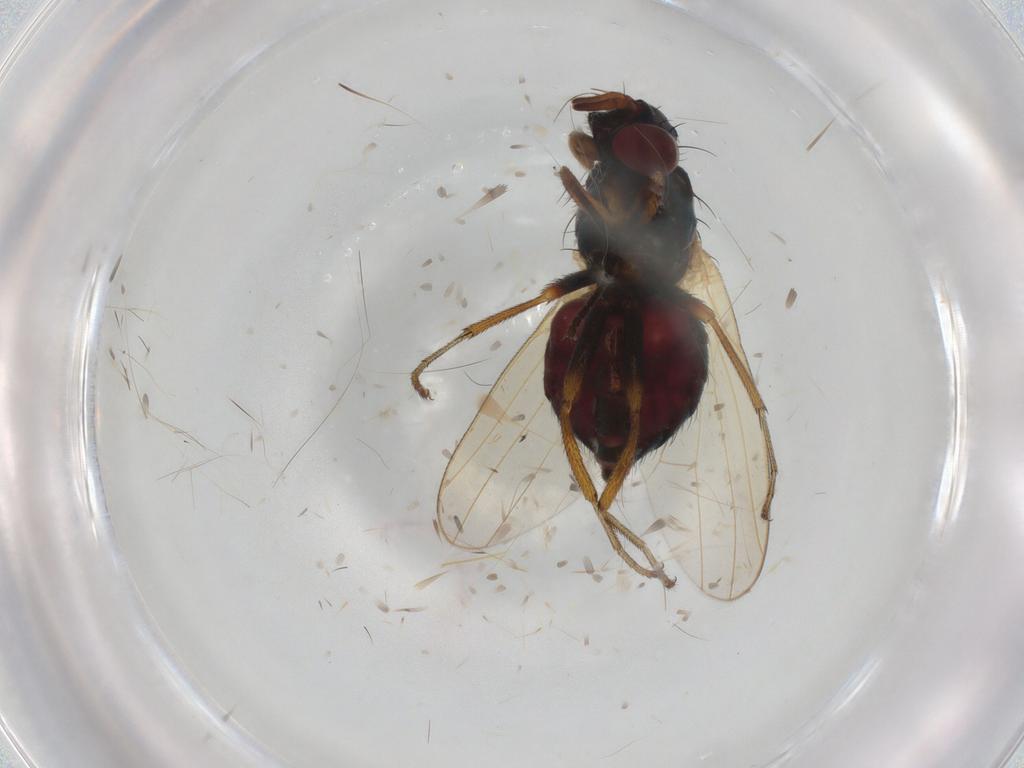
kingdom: Animalia
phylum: Arthropoda
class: Insecta
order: Diptera
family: Lauxaniidae
